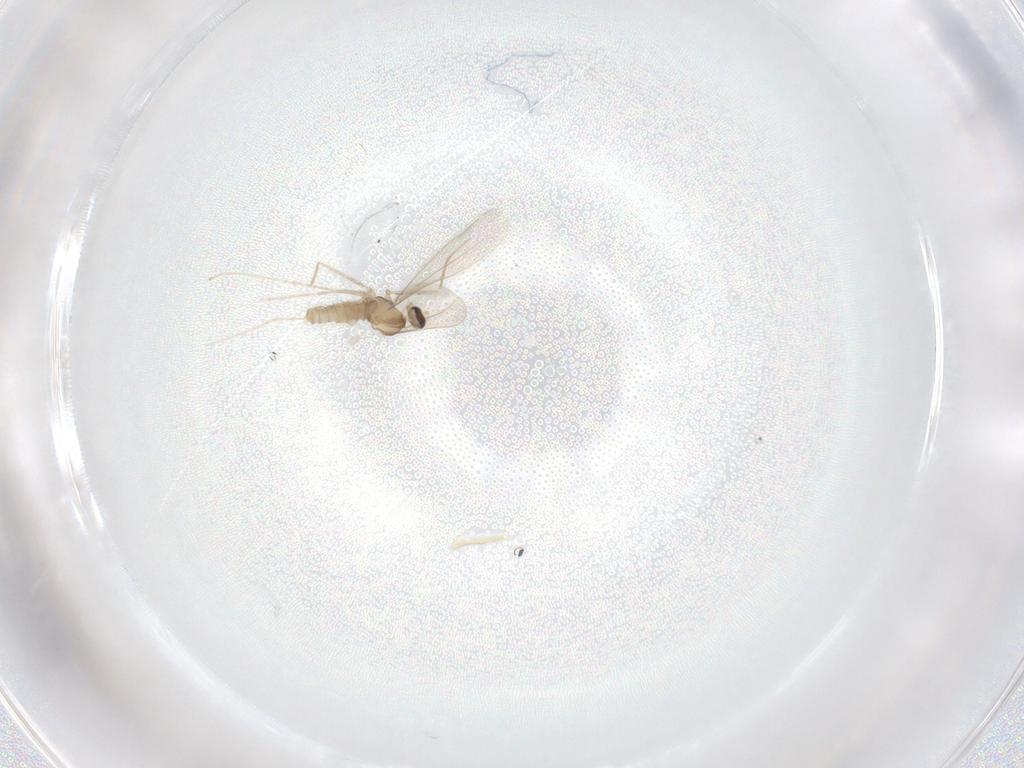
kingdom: Animalia
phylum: Arthropoda
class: Insecta
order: Diptera
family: Cecidomyiidae
